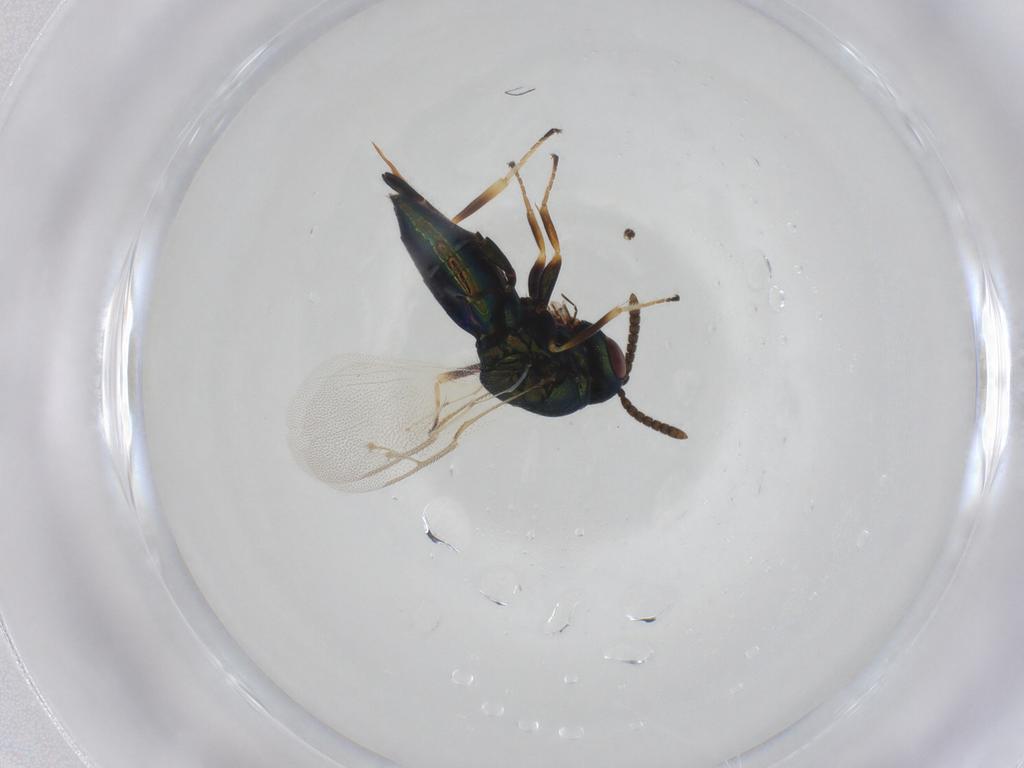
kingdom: Animalia
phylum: Arthropoda
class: Insecta
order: Hymenoptera
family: Pteromalidae
